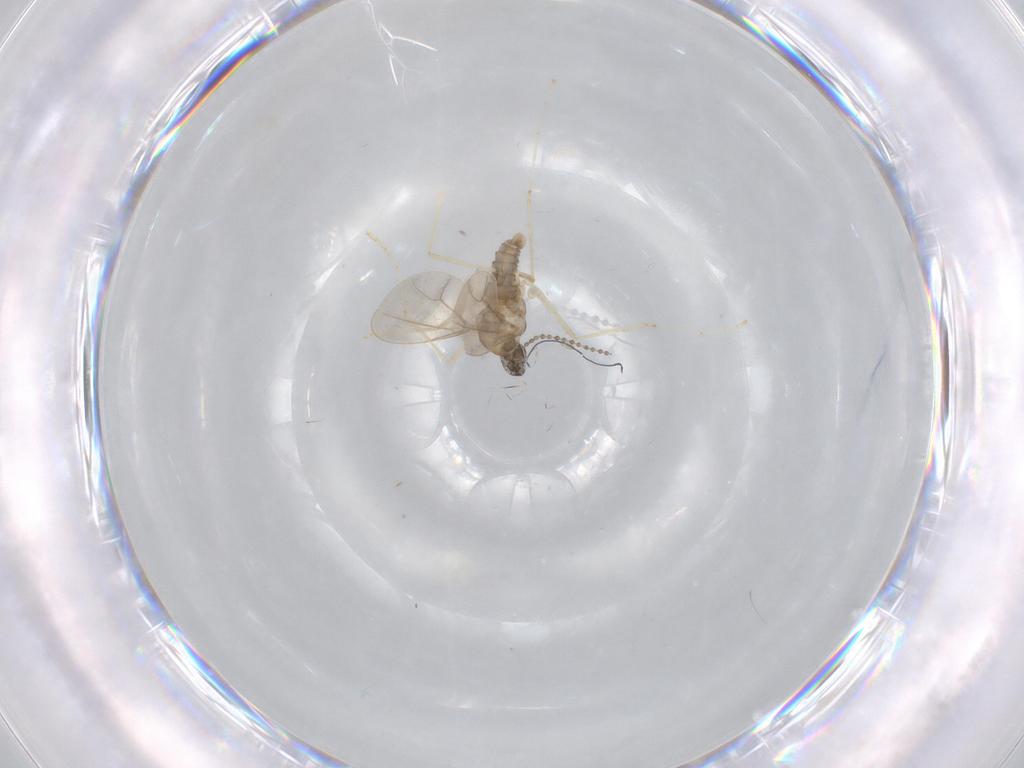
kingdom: Animalia
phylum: Arthropoda
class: Insecta
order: Diptera
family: Cecidomyiidae
